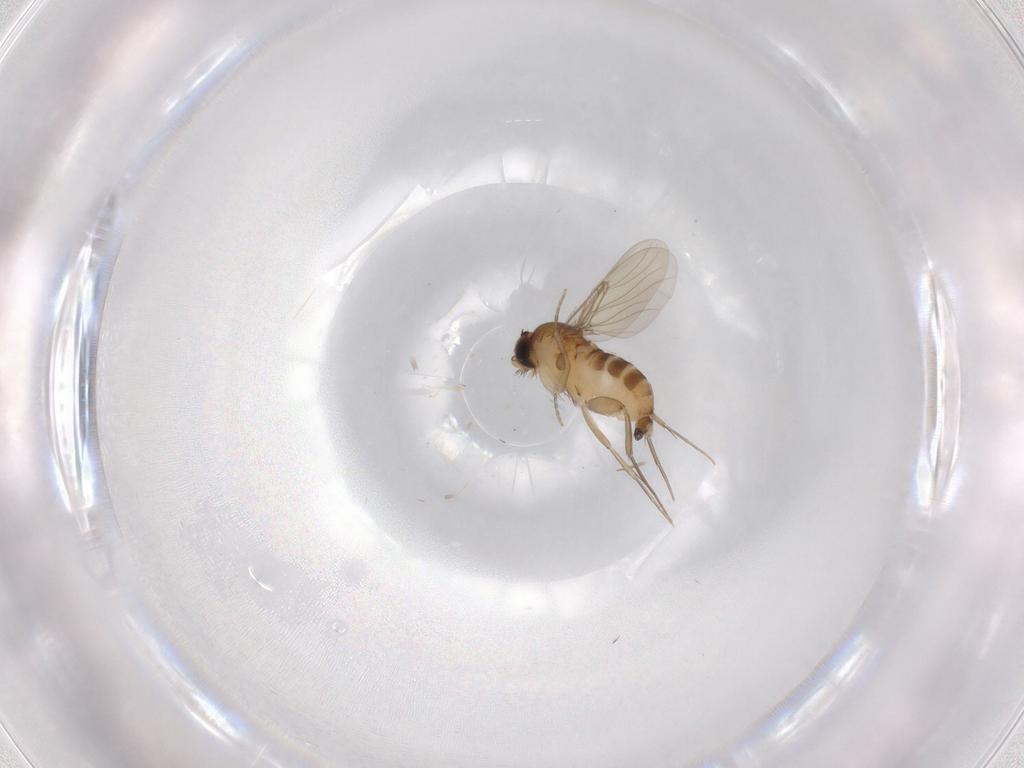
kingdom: Animalia
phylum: Arthropoda
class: Insecta
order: Diptera
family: Phoridae
